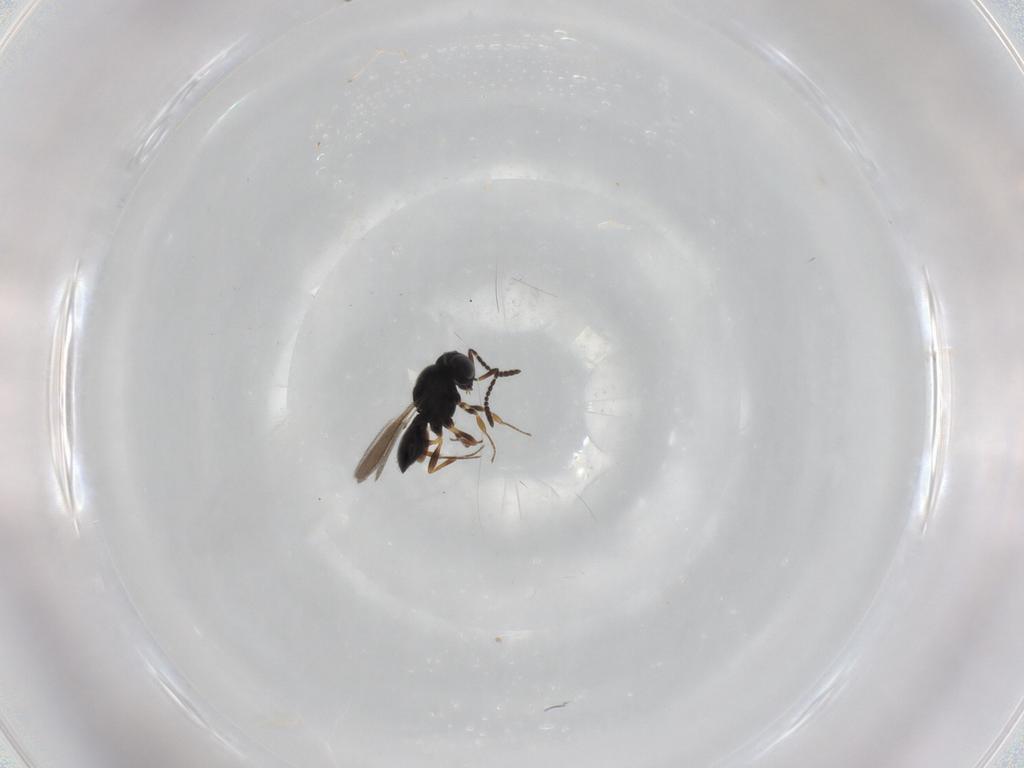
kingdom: Animalia
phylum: Arthropoda
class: Insecta
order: Hymenoptera
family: Scelionidae
